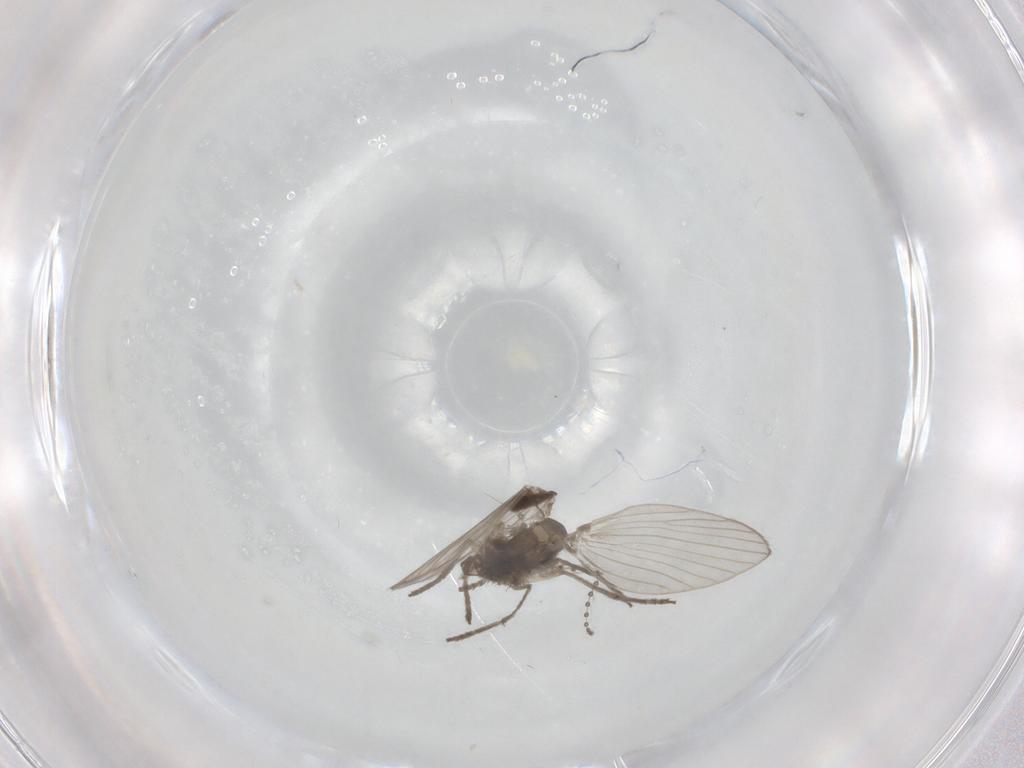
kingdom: Animalia
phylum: Arthropoda
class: Insecta
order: Diptera
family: Psychodidae
